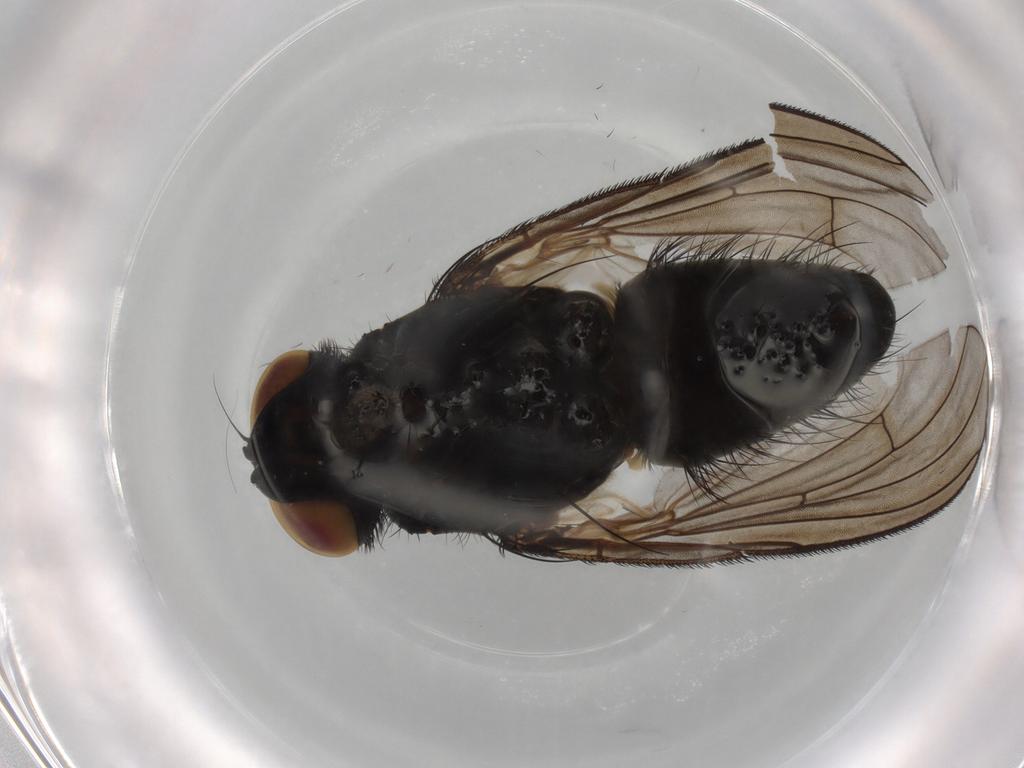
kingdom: Animalia
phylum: Arthropoda
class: Insecta
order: Diptera
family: Muscidae
